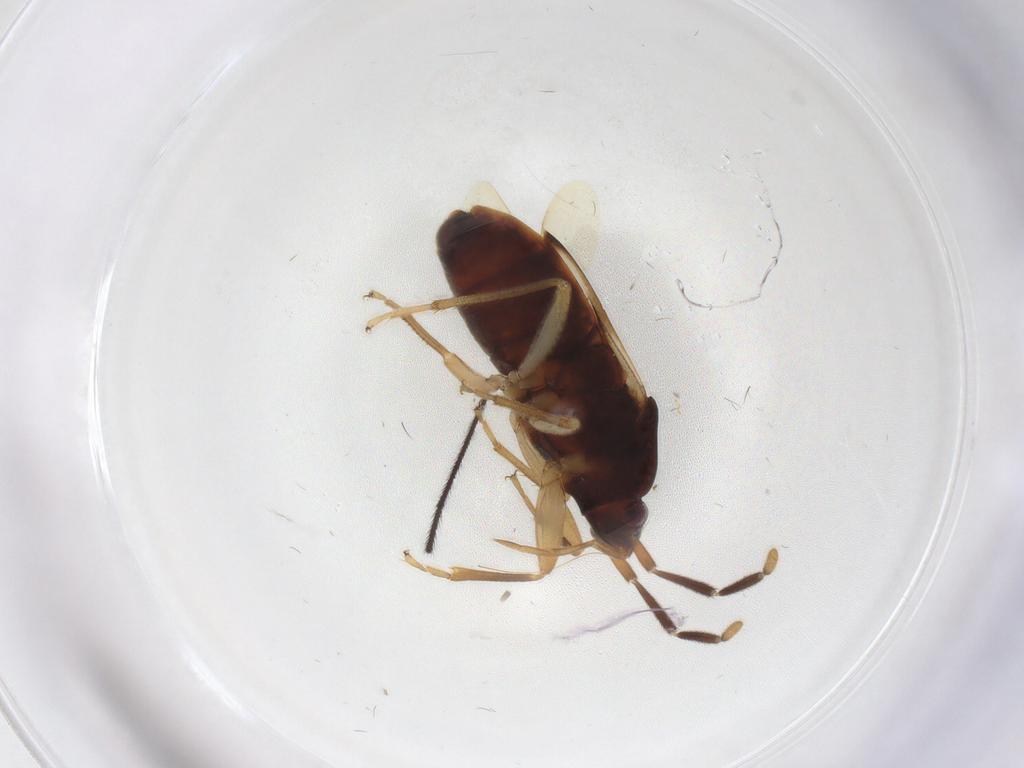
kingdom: Animalia
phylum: Arthropoda
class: Insecta
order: Hemiptera
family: Rhyparochromidae
